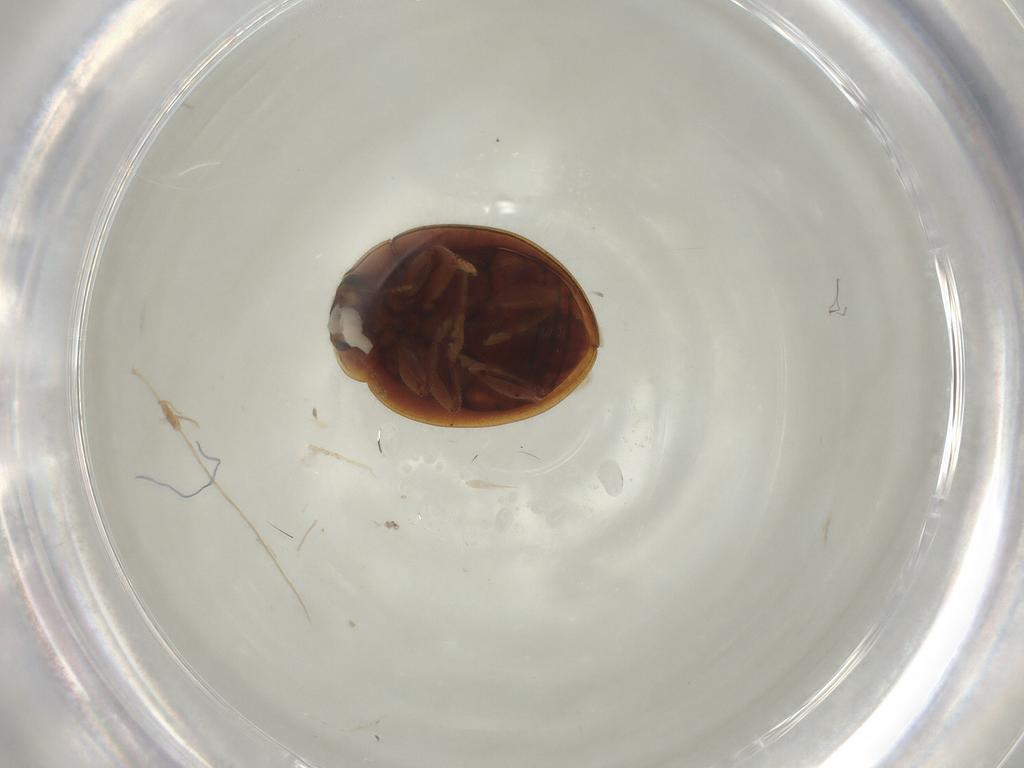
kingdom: Animalia
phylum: Arthropoda
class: Insecta
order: Coleoptera
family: Coccinellidae
